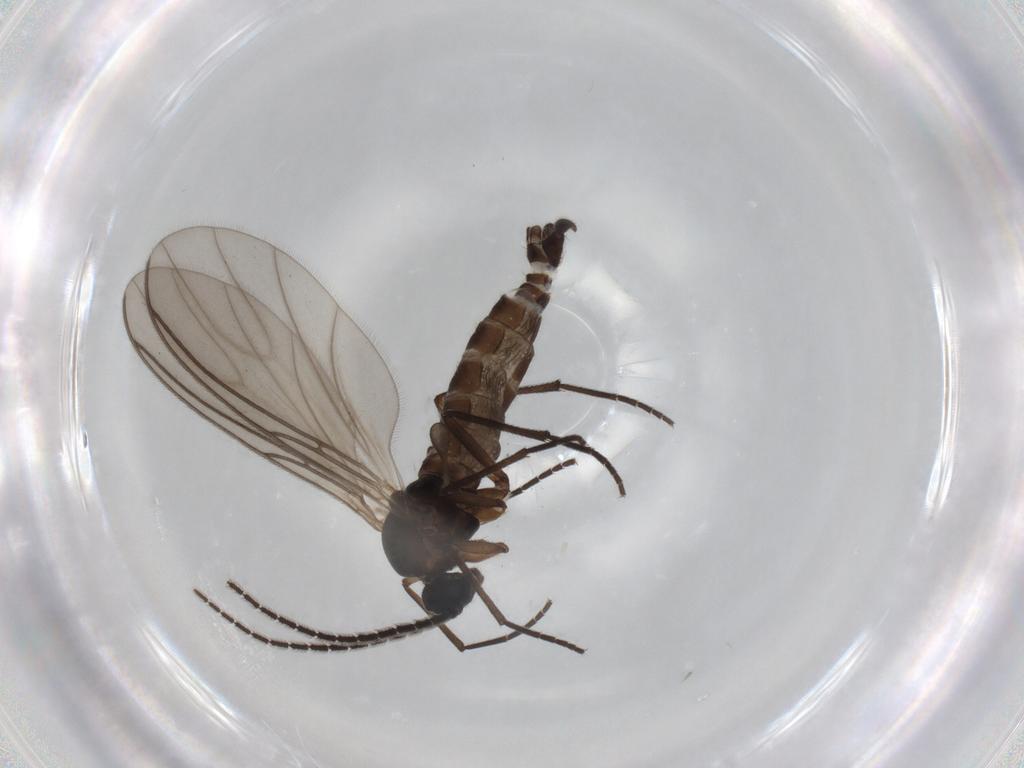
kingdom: Animalia
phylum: Arthropoda
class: Insecta
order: Diptera
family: Sciaridae
